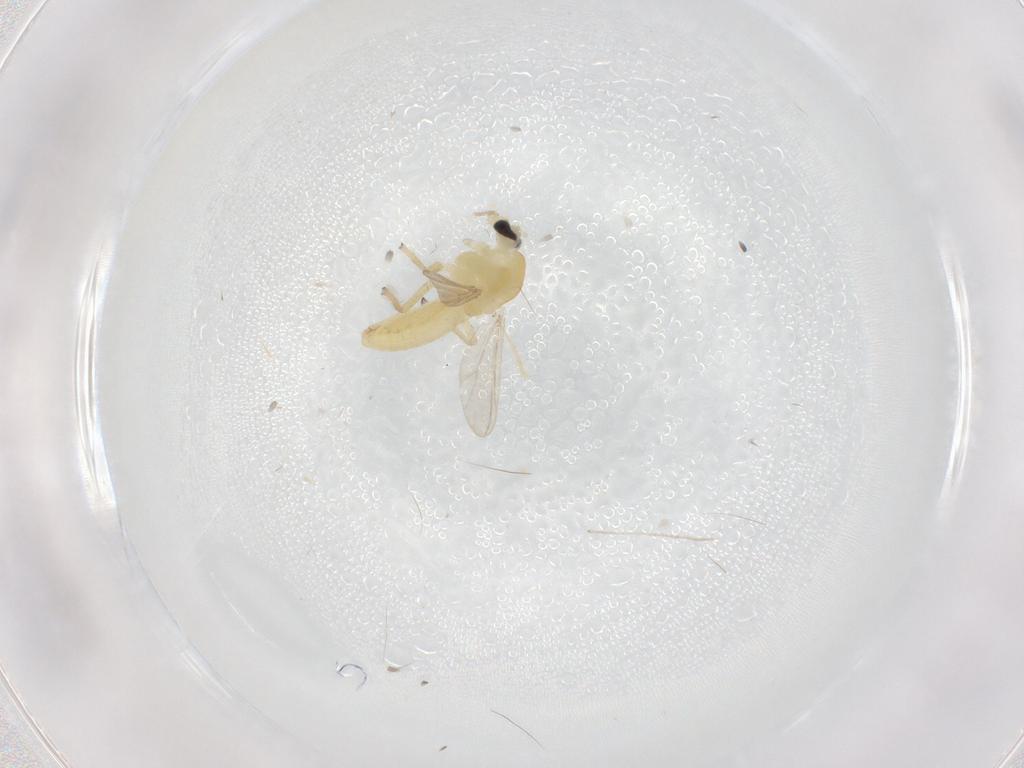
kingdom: Animalia
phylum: Arthropoda
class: Insecta
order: Diptera
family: Chironomidae
